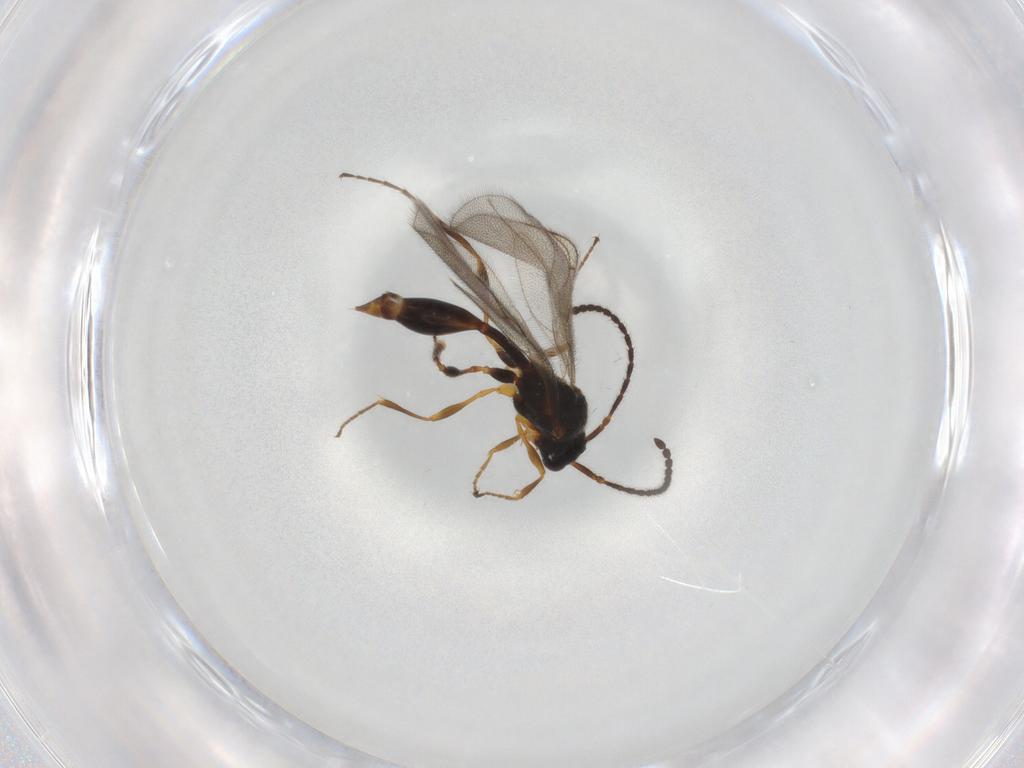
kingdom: Animalia
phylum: Arthropoda
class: Insecta
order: Hymenoptera
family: Diapriidae
